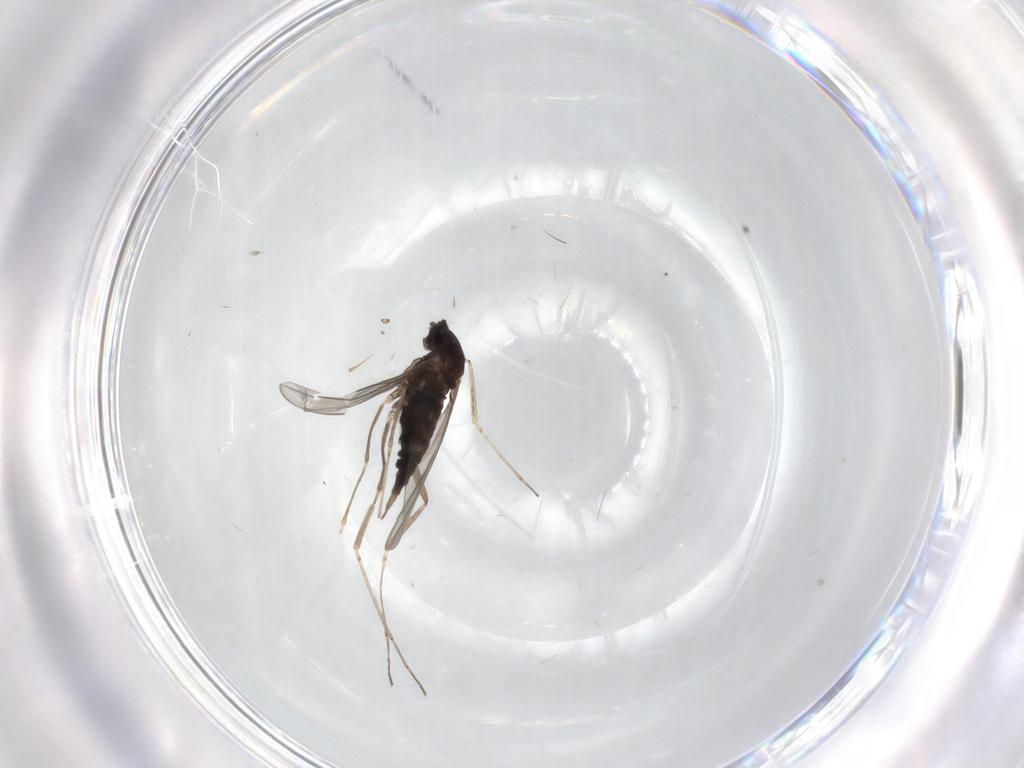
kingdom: Animalia
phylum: Arthropoda
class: Insecta
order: Diptera
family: Cecidomyiidae
